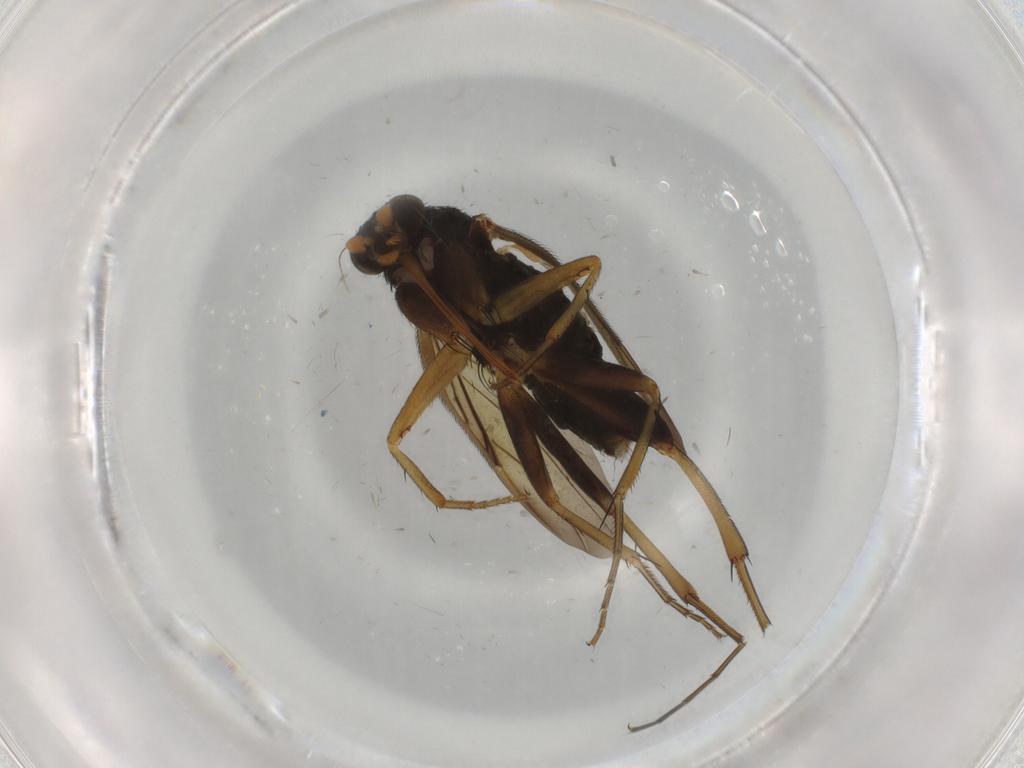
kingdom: Animalia
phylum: Arthropoda
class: Insecta
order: Diptera
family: Phoridae
